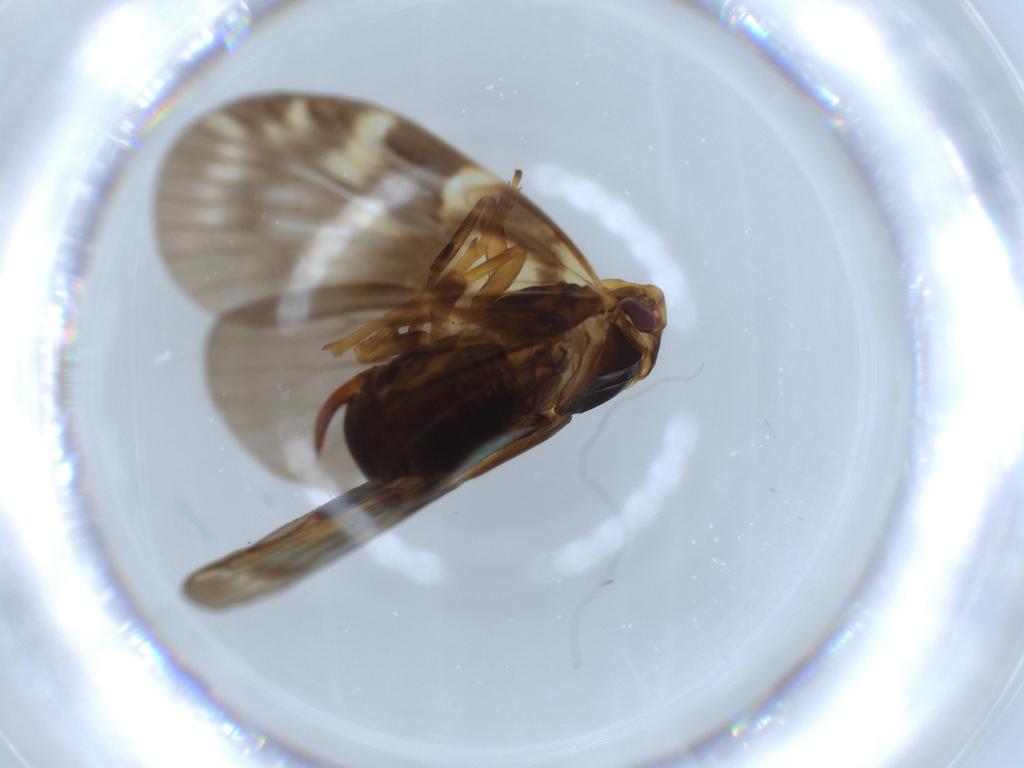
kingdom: Animalia
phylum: Arthropoda
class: Insecta
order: Hemiptera
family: Cixiidae
